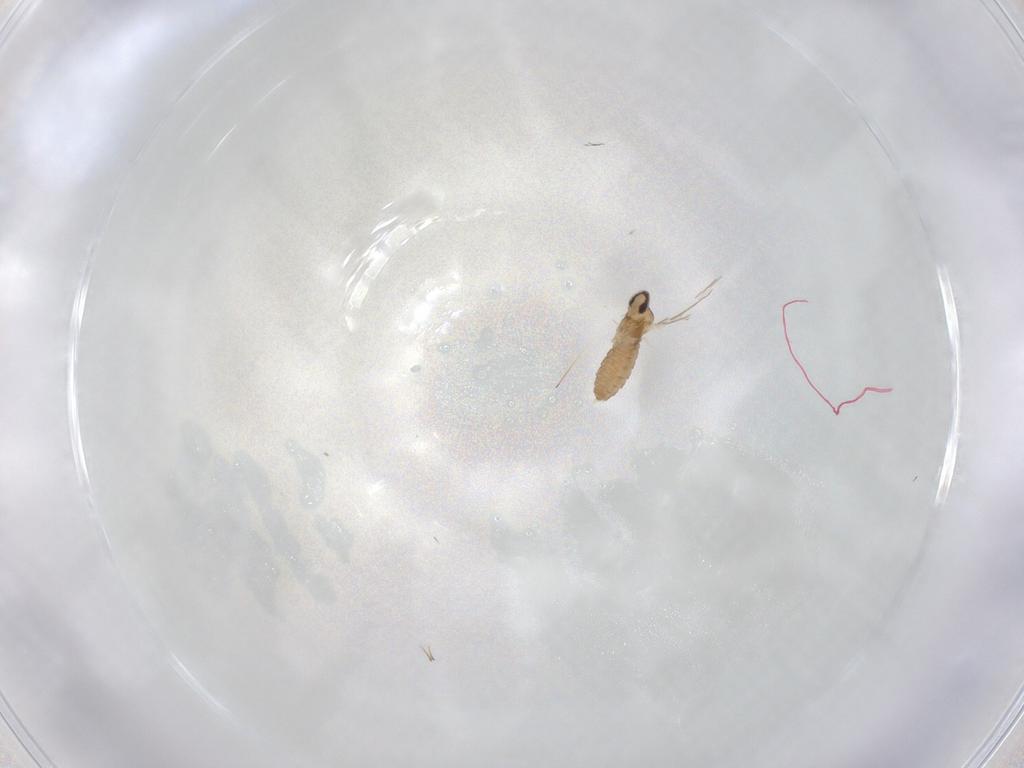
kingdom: Animalia
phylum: Arthropoda
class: Insecta
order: Diptera
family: Cecidomyiidae
